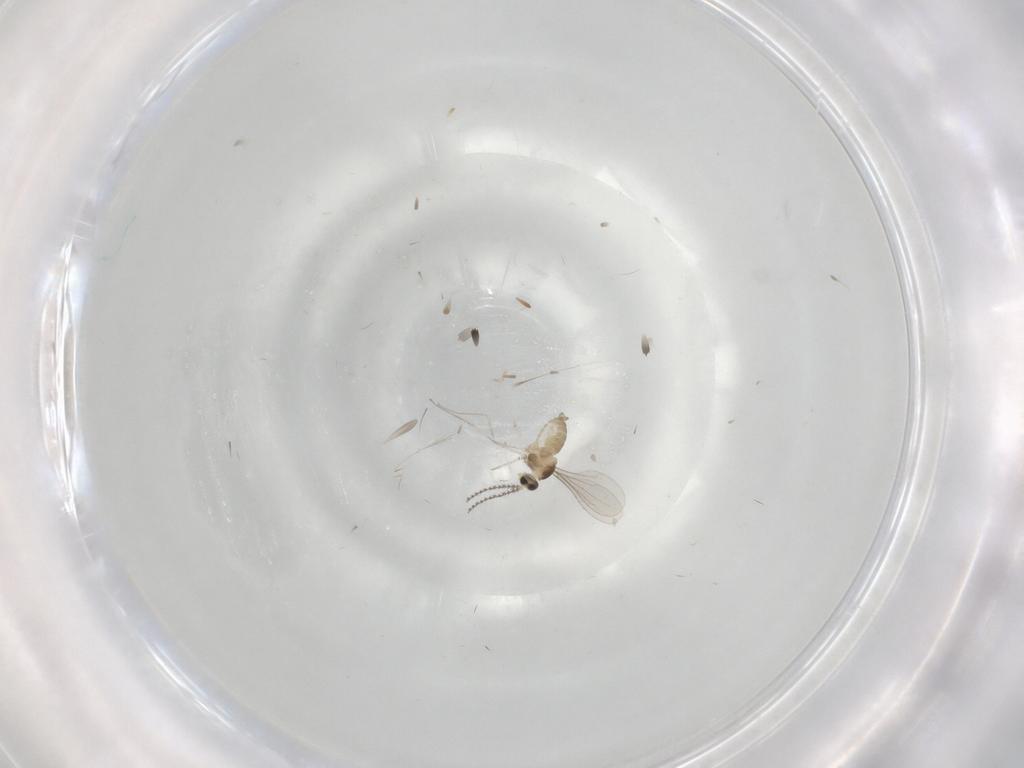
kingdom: Animalia
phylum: Arthropoda
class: Insecta
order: Diptera
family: Cecidomyiidae
